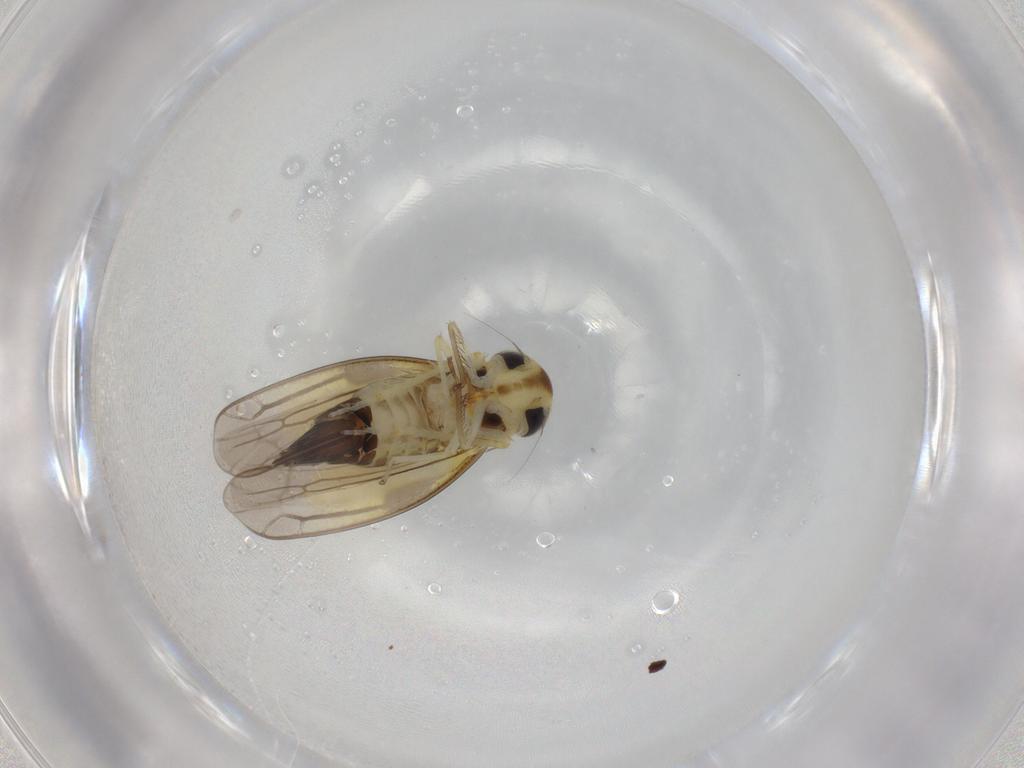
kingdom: Animalia
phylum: Arthropoda
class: Insecta
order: Hemiptera
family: Cicadellidae
